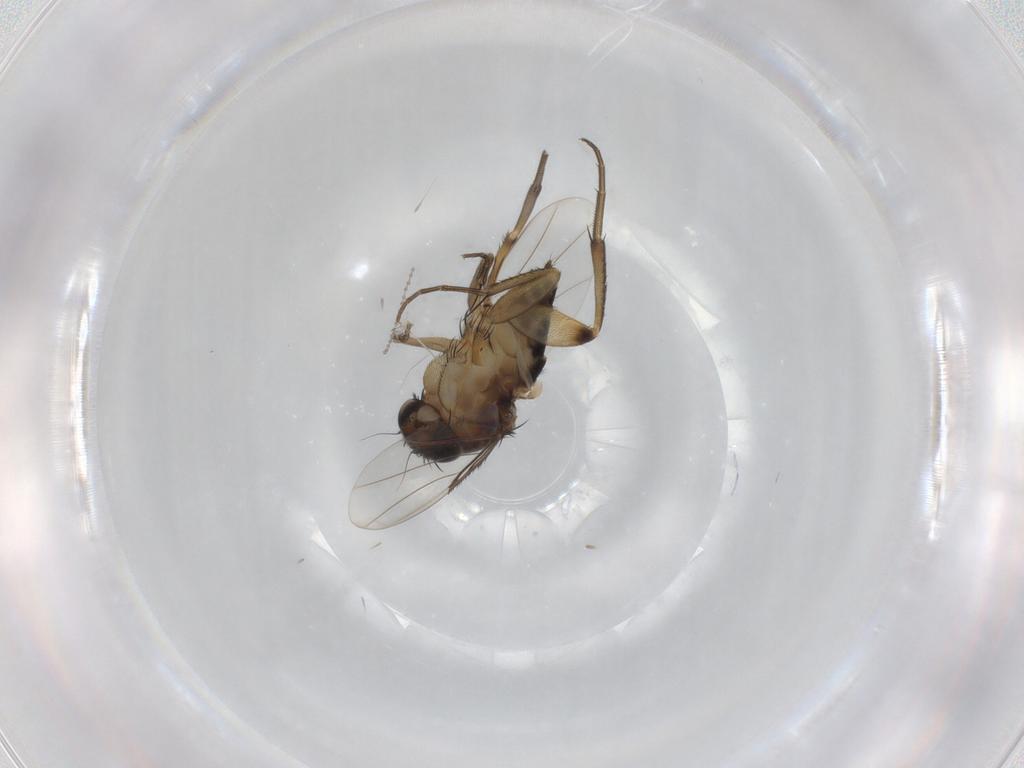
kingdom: Animalia
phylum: Arthropoda
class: Insecta
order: Diptera
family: Phoridae
